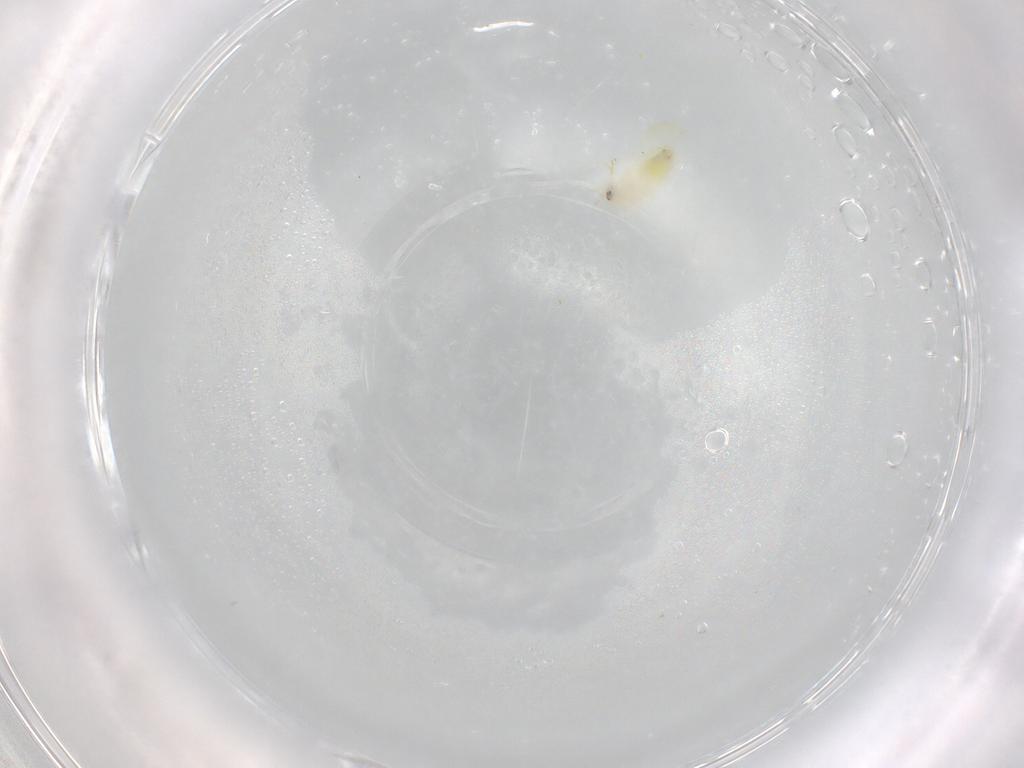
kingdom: Animalia
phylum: Arthropoda
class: Insecta
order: Hemiptera
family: Aleyrodidae
